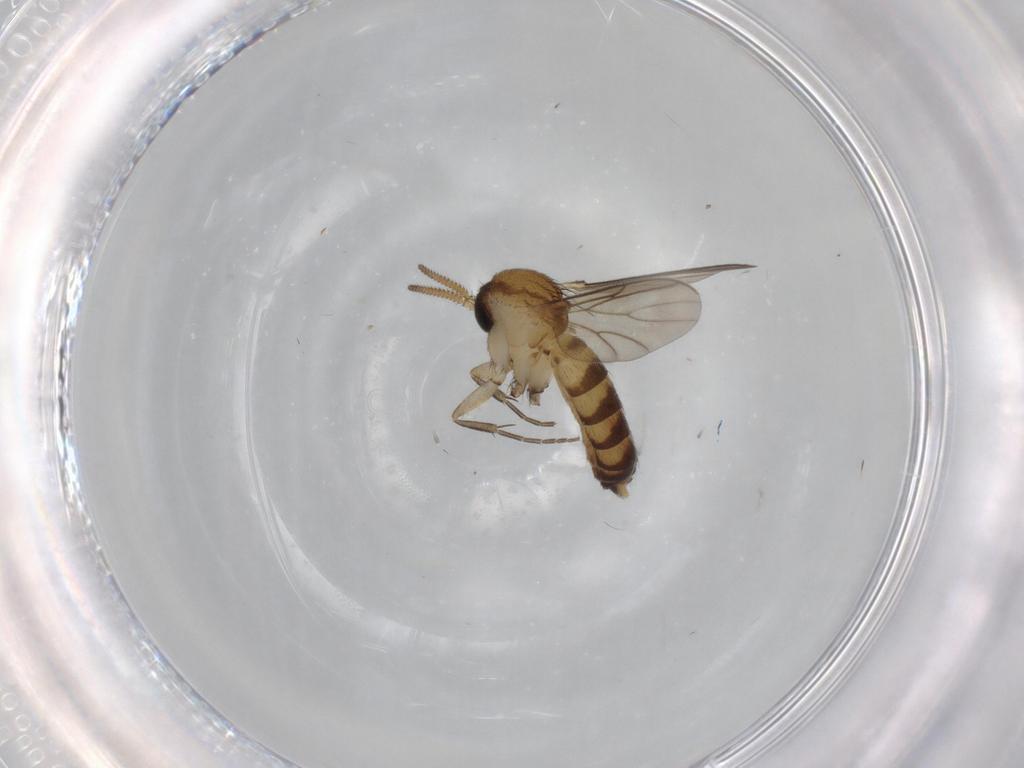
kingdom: Animalia
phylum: Arthropoda
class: Insecta
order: Diptera
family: Mycetophilidae
